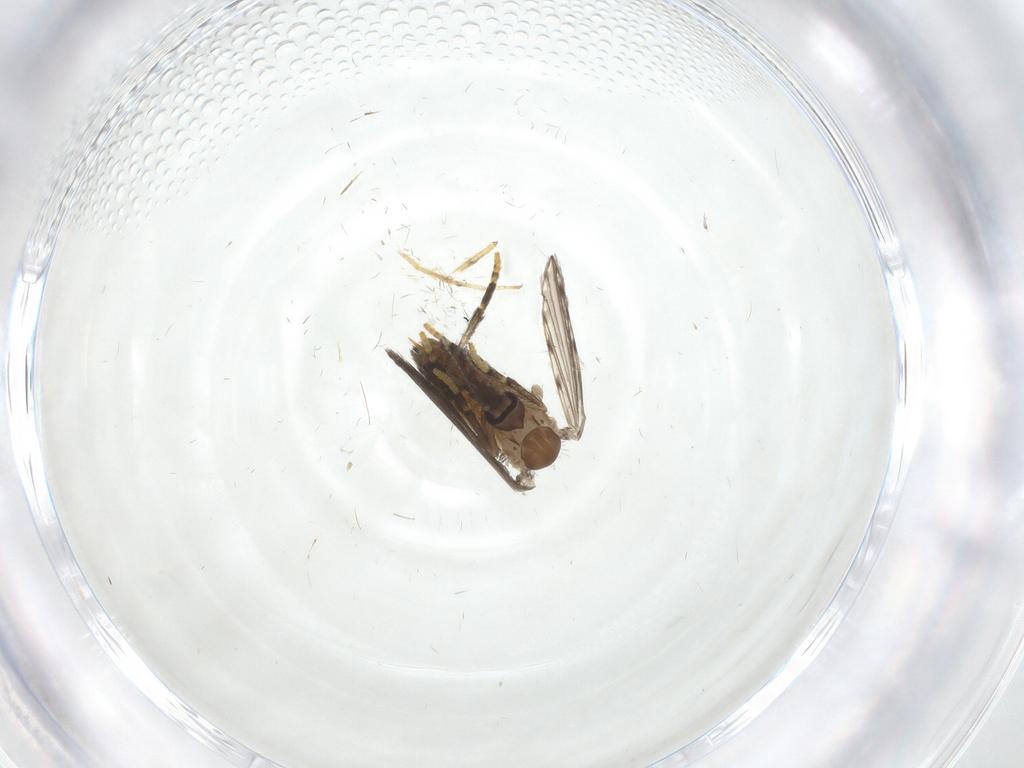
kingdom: Animalia
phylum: Arthropoda
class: Insecta
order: Diptera
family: Psychodidae
